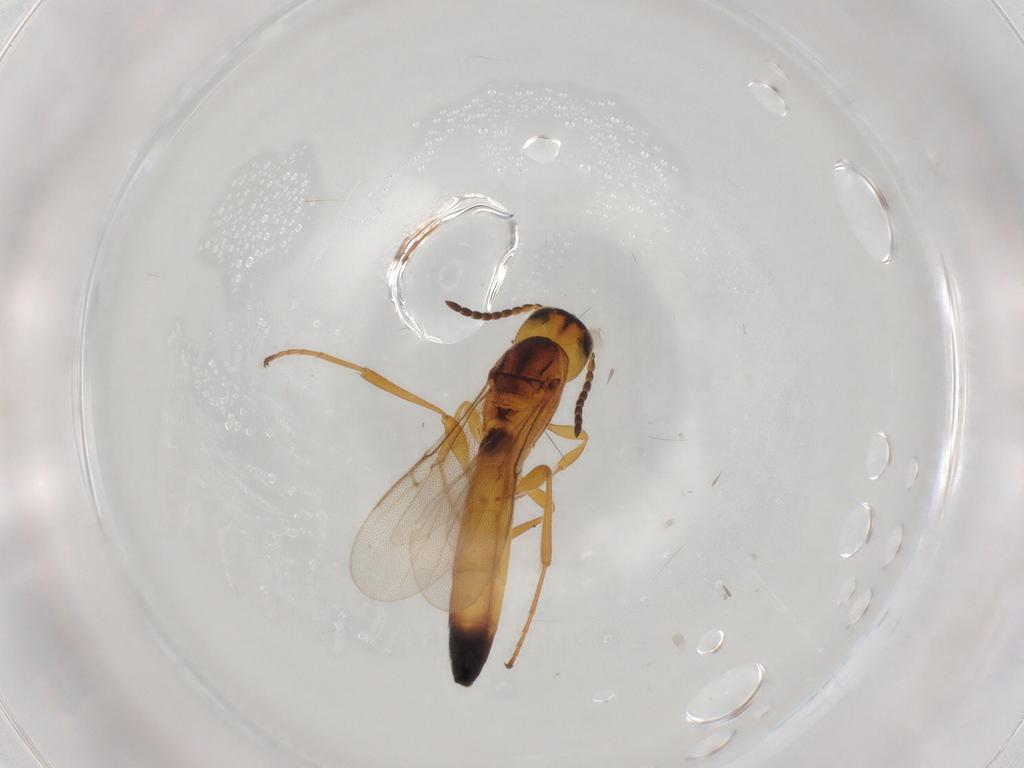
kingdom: Animalia
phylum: Arthropoda
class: Insecta
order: Hymenoptera
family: Scelionidae
